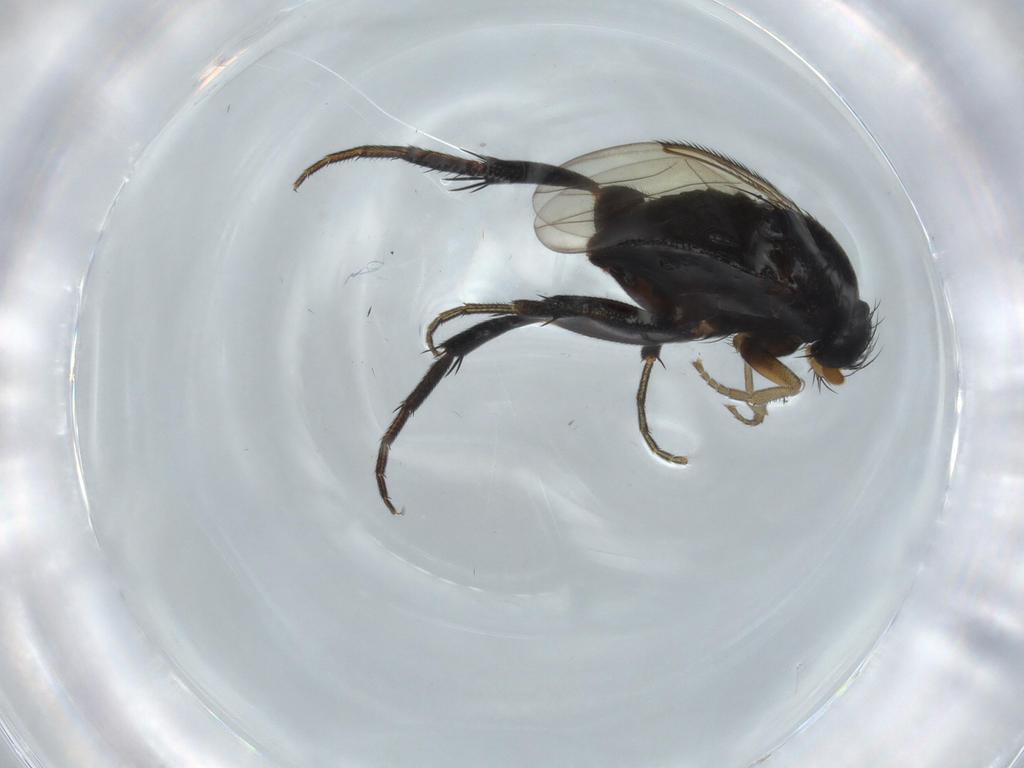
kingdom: Animalia
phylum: Arthropoda
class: Insecta
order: Diptera
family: Phoridae
